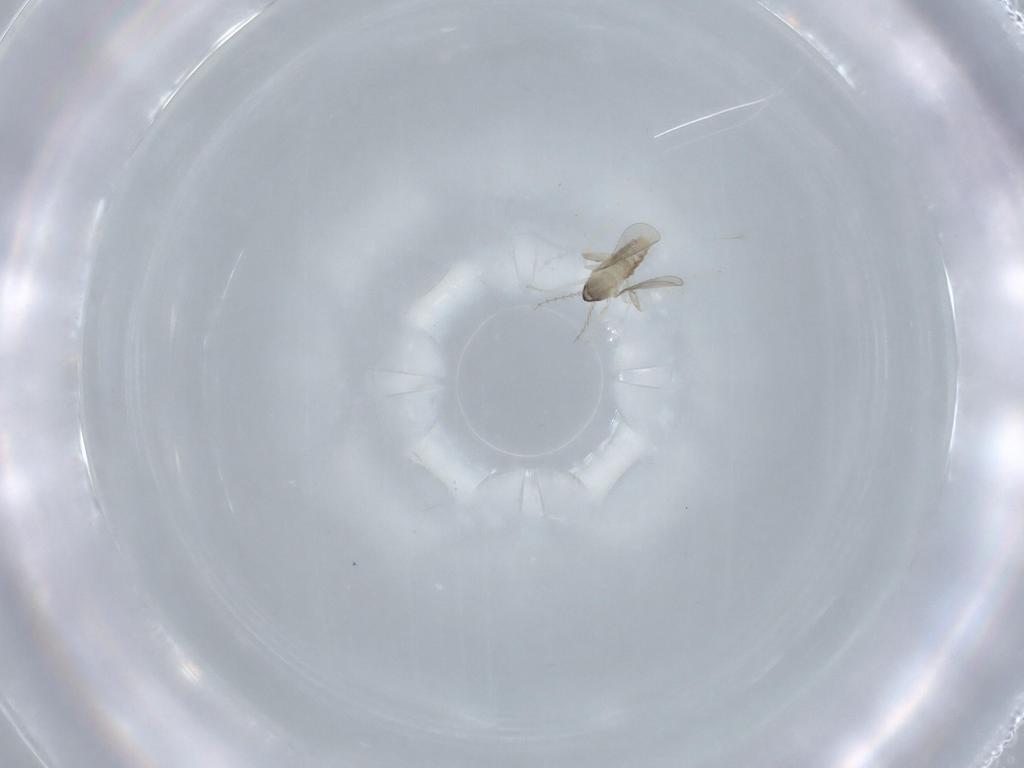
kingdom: Animalia
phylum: Arthropoda
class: Insecta
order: Diptera
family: Cecidomyiidae
